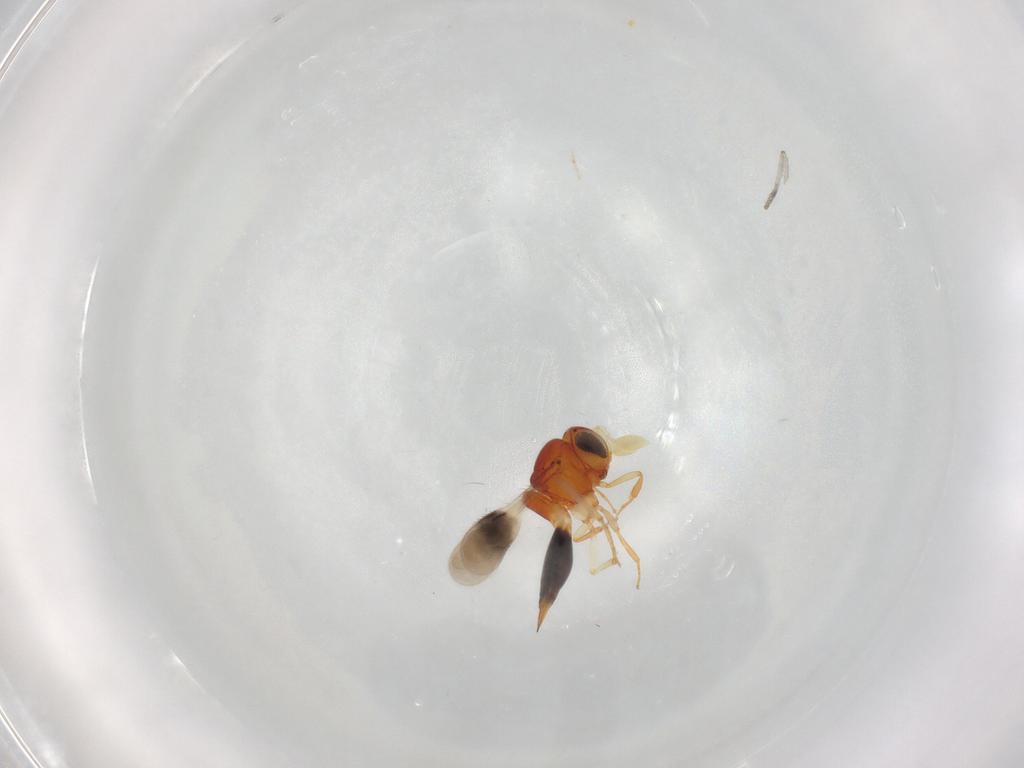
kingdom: Animalia
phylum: Arthropoda
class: Insecta
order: Hymenoptera
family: Scelionidae
